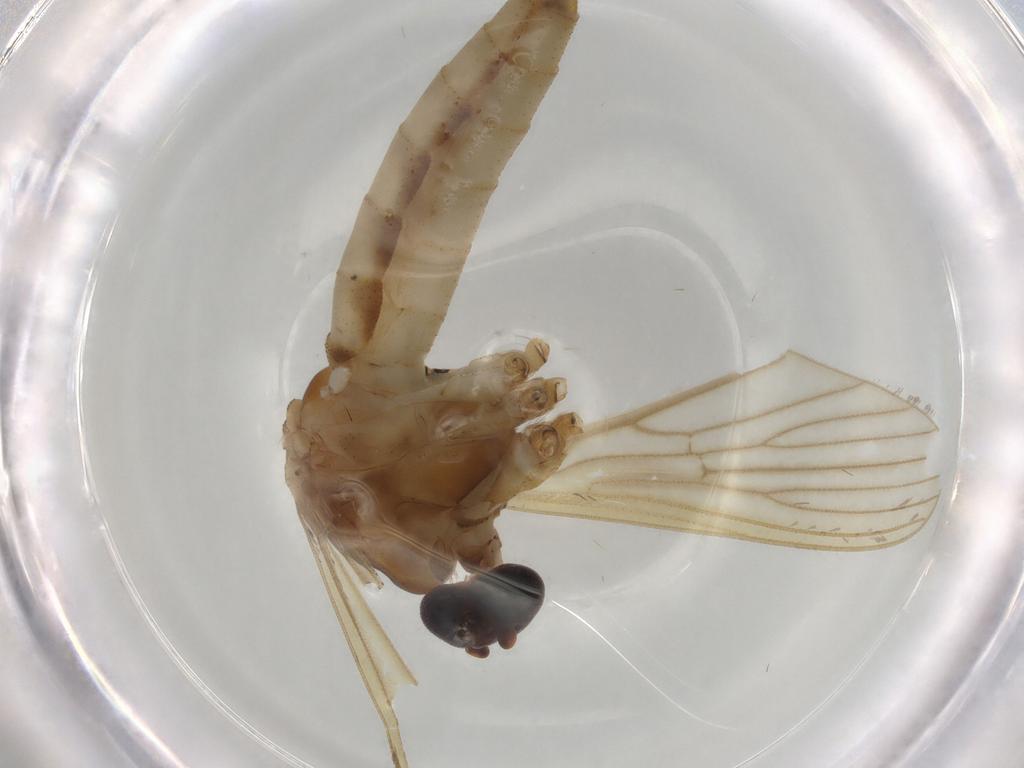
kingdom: Animalia
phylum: Arthropoda
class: Insecta
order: Diptera
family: Culicidae
